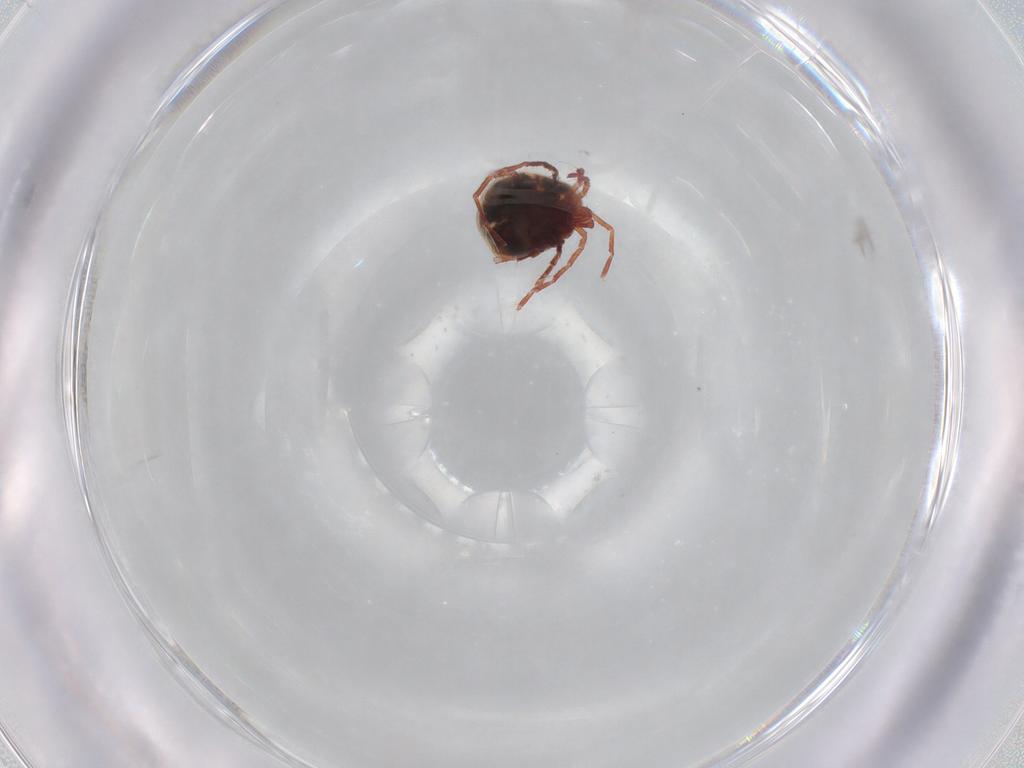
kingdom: Animalia
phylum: Arthropoda
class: Arachnida
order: Trombidiformes
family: Pionidae
